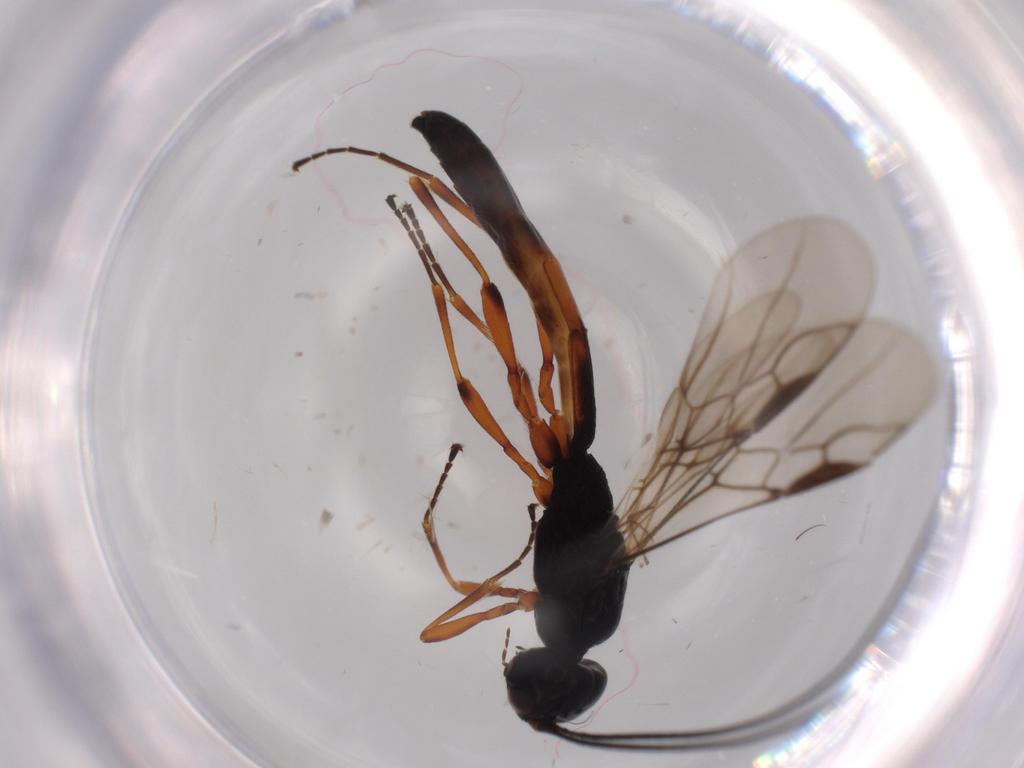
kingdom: Animalia
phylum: Arthropoda
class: Insecta
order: Hymenoptera
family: Braconidae
